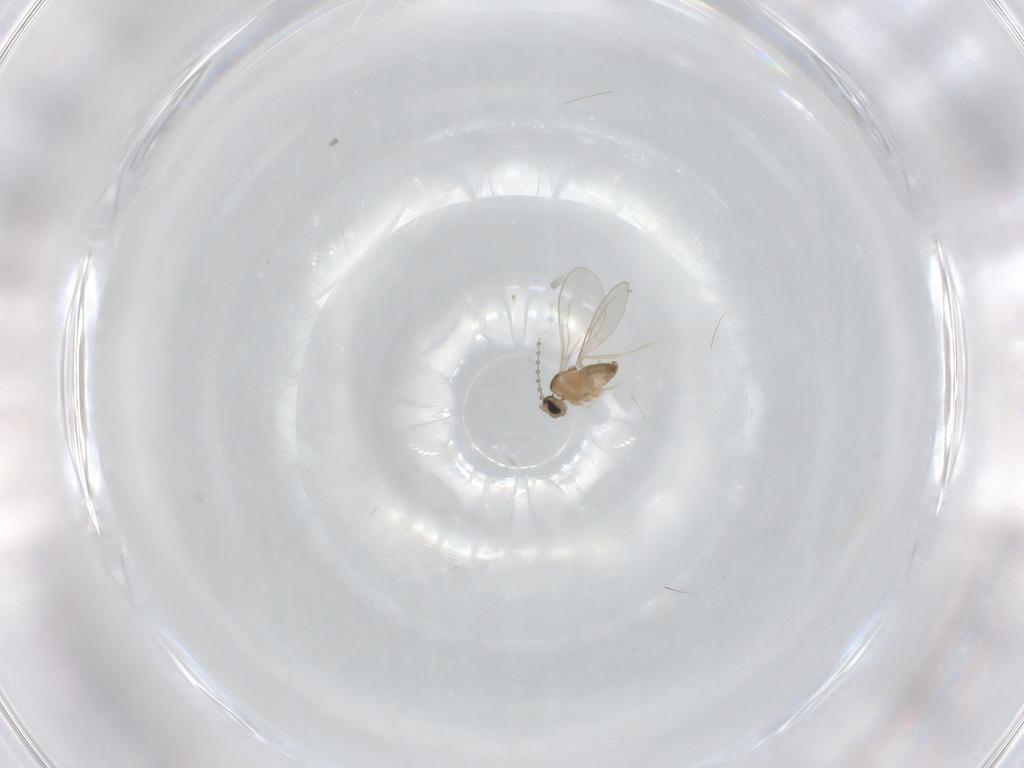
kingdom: Animalia
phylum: Arthropoda
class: Insecta
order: Diptera
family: Cecidomyiidae
